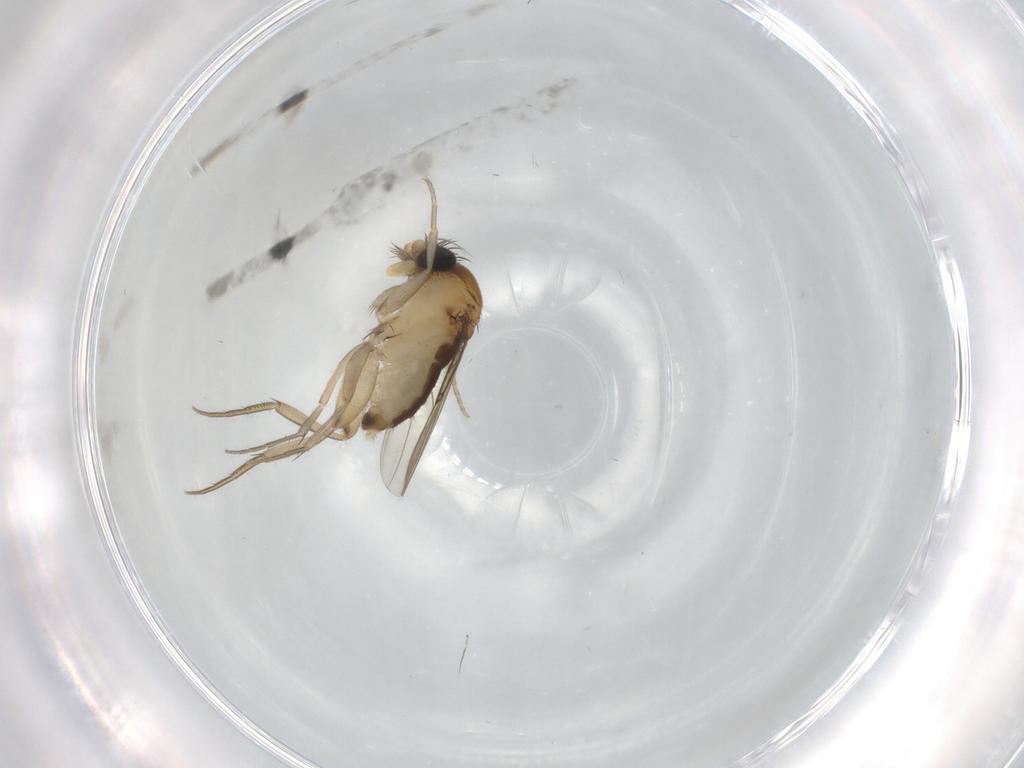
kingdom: Animalia
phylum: Arthropoda
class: Insecta
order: Diptera
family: Phoridae
